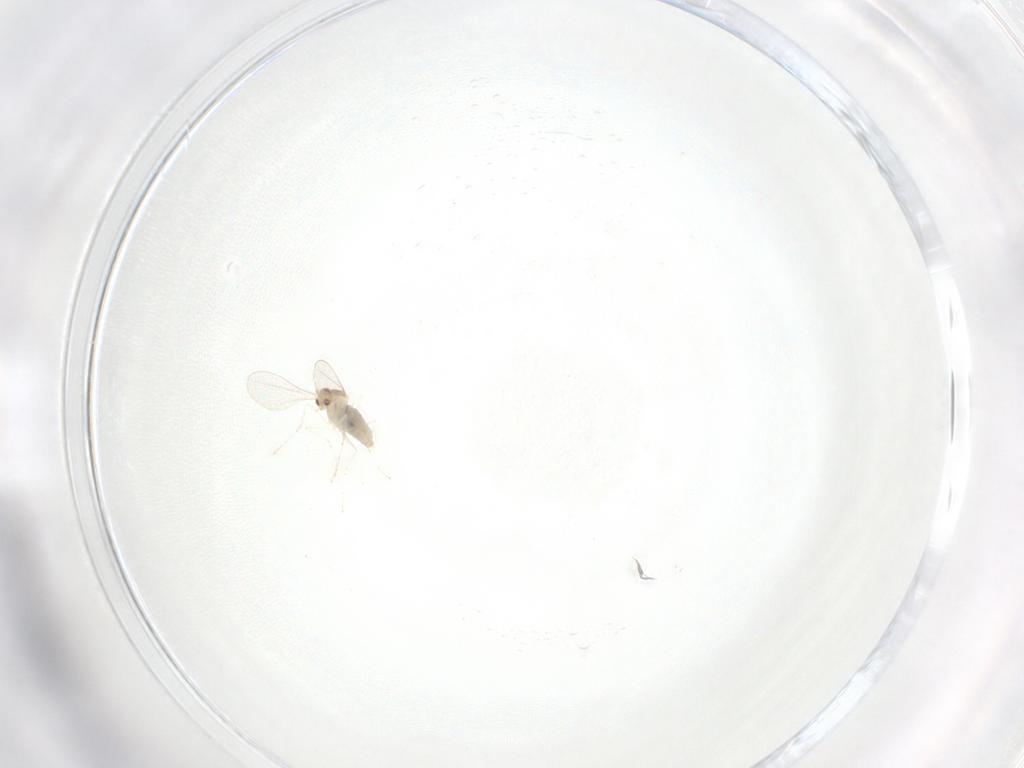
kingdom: Animalia
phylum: Arthropoda
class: Insecta
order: Diptera
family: Cecidomyiidae
